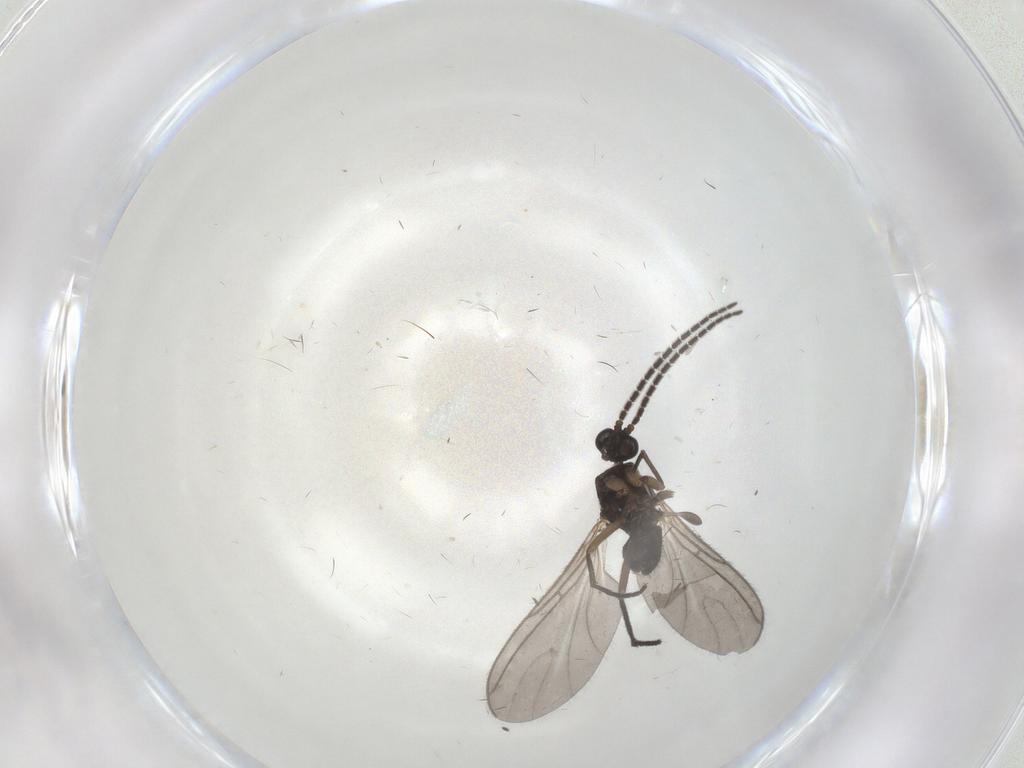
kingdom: Animalia
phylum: Arthropoda
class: Insecta
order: Diptera
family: Sciaridae
